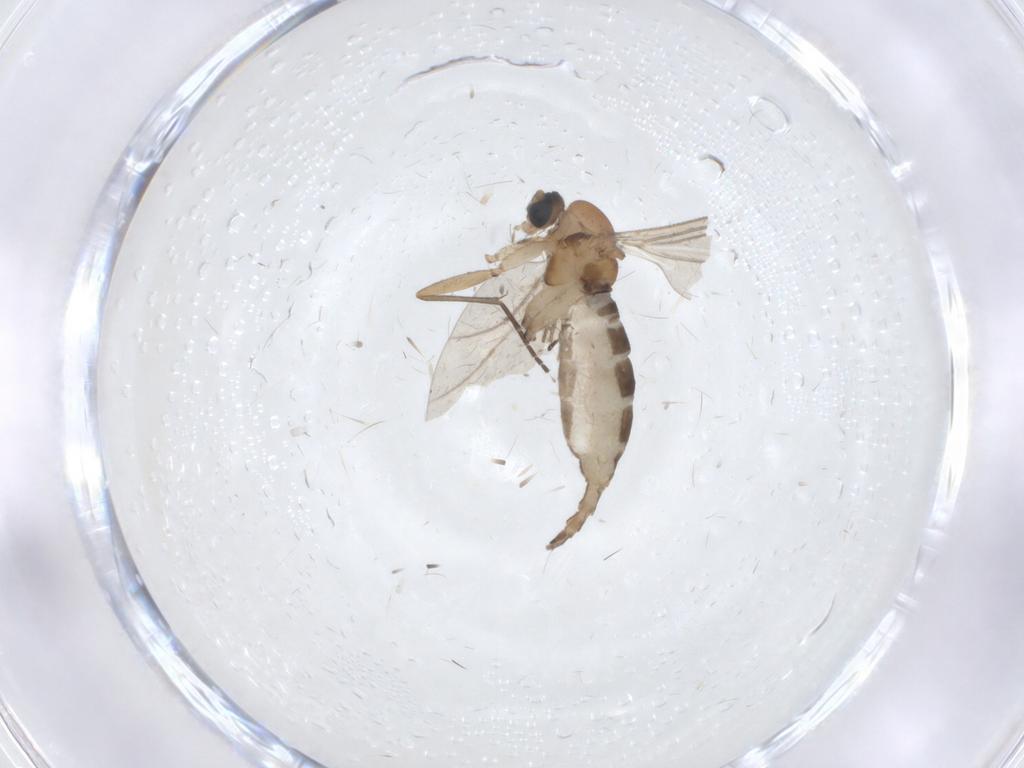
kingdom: Animalia
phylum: Arthropoda
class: Insecta
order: Diptera
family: Sciaridae
